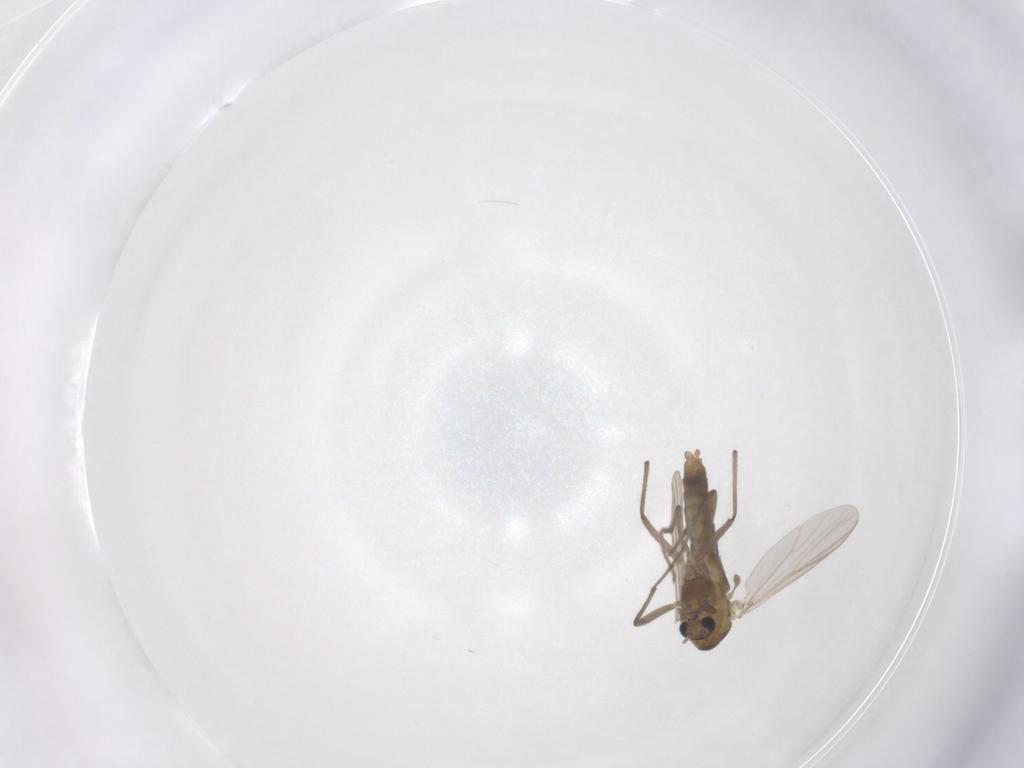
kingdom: Animalia
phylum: Arthropoda
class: Insecta
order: Diptera
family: Chironomidae
